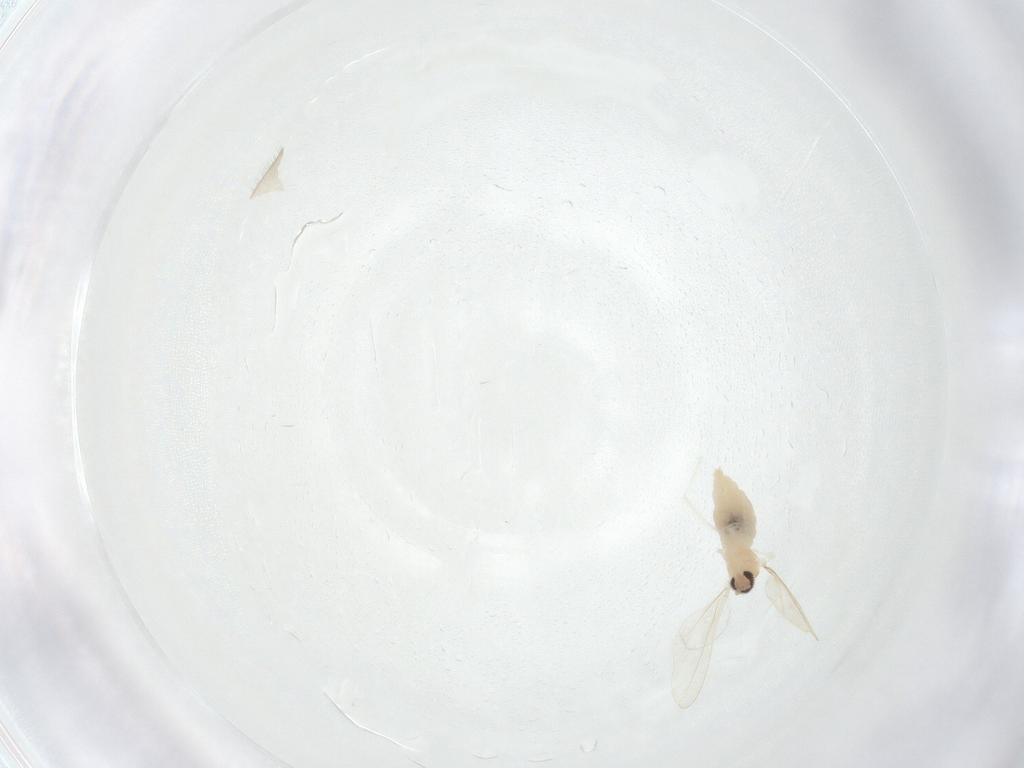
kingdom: Animalia
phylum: Arthropoda
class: Insecta
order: Diptera
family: Cecidomyiidae
